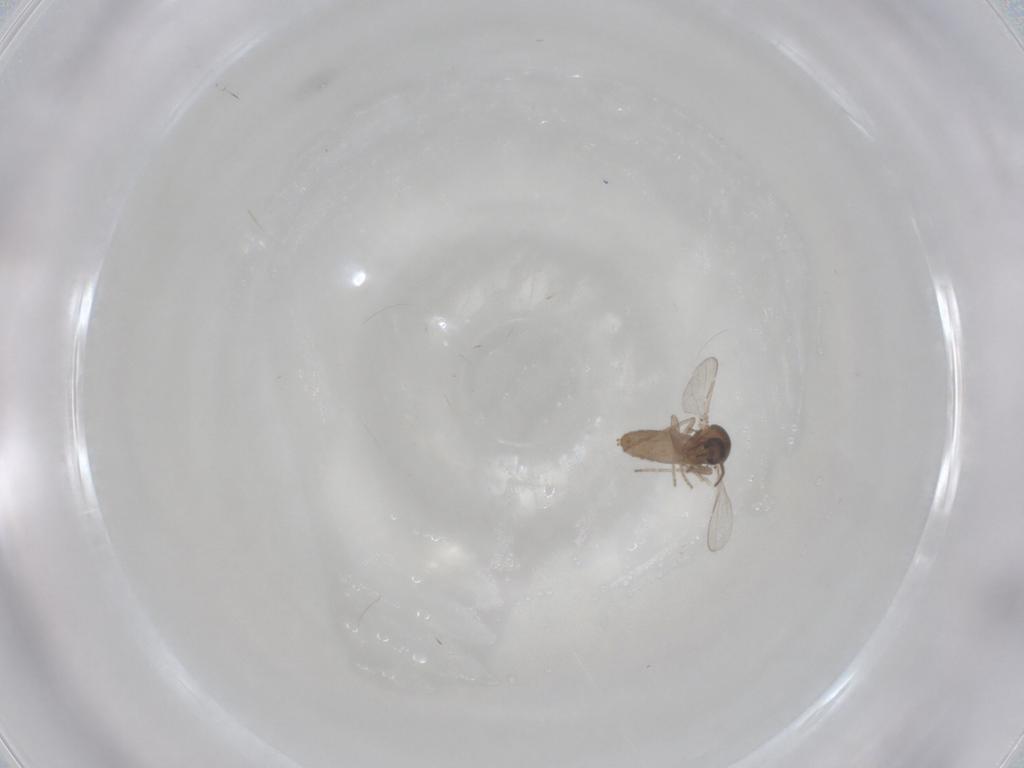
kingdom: Animalia
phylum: Arthropoda
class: Insecta
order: Diptera
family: Ceratopogonidae
